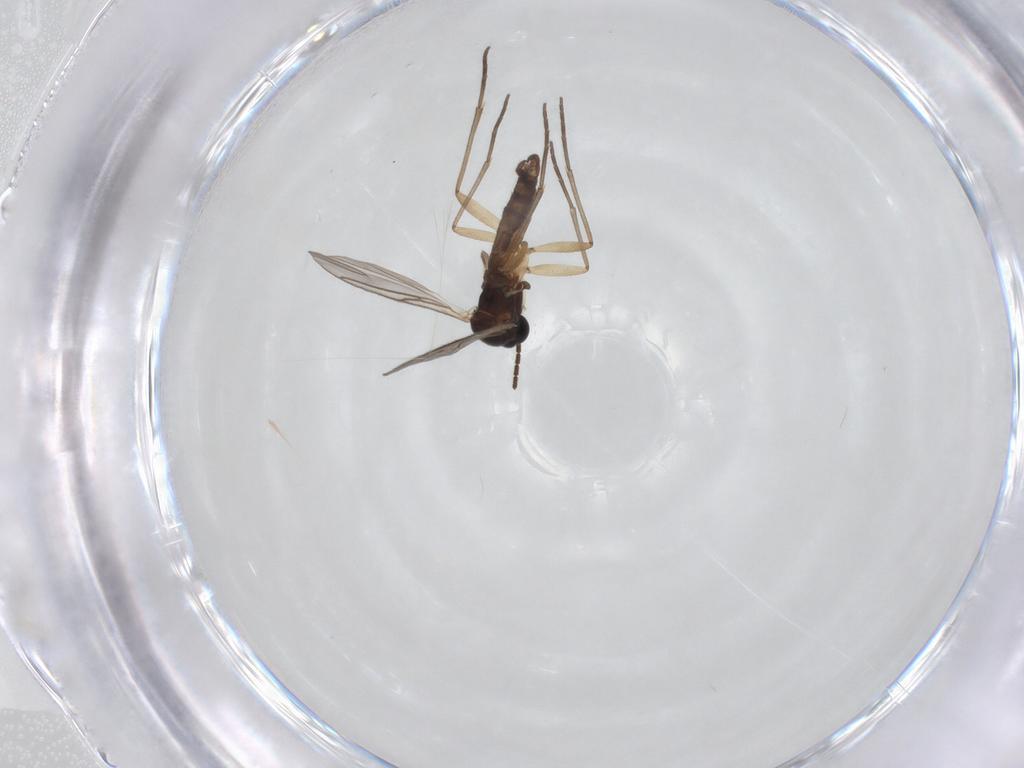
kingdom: Animalia
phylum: Arthropoda
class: Insecta
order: Diptera
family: Sciaridae
